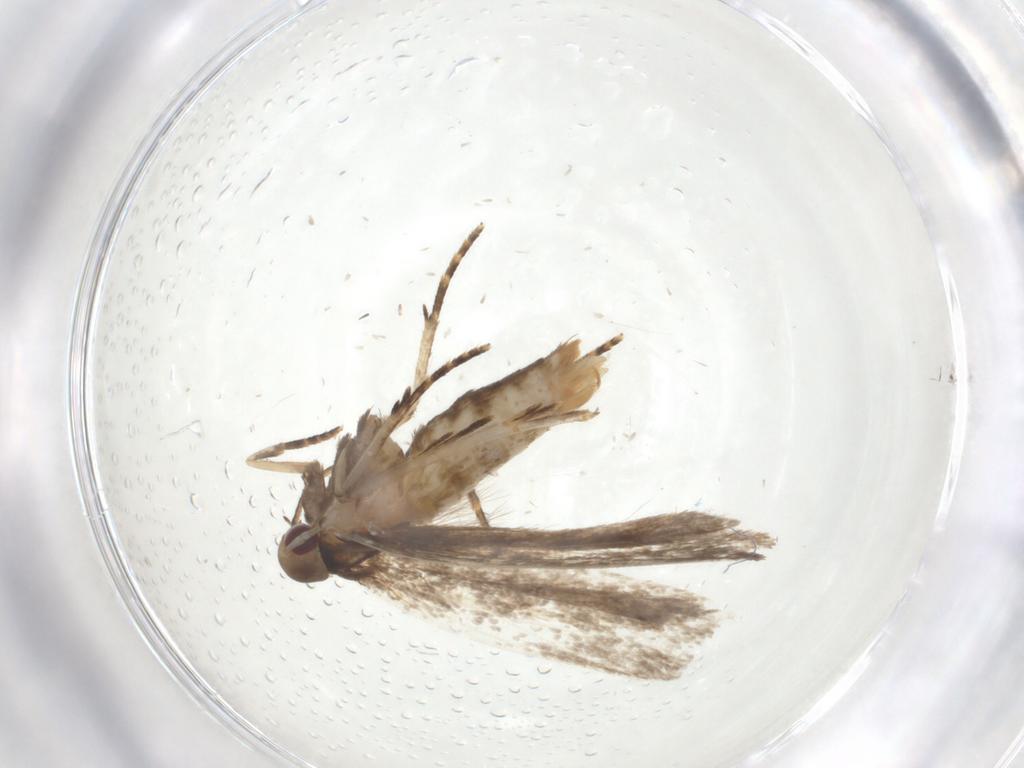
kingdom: Animalia
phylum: Arthropoda
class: Insecta
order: Lepidoptera
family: Gelechiidae
